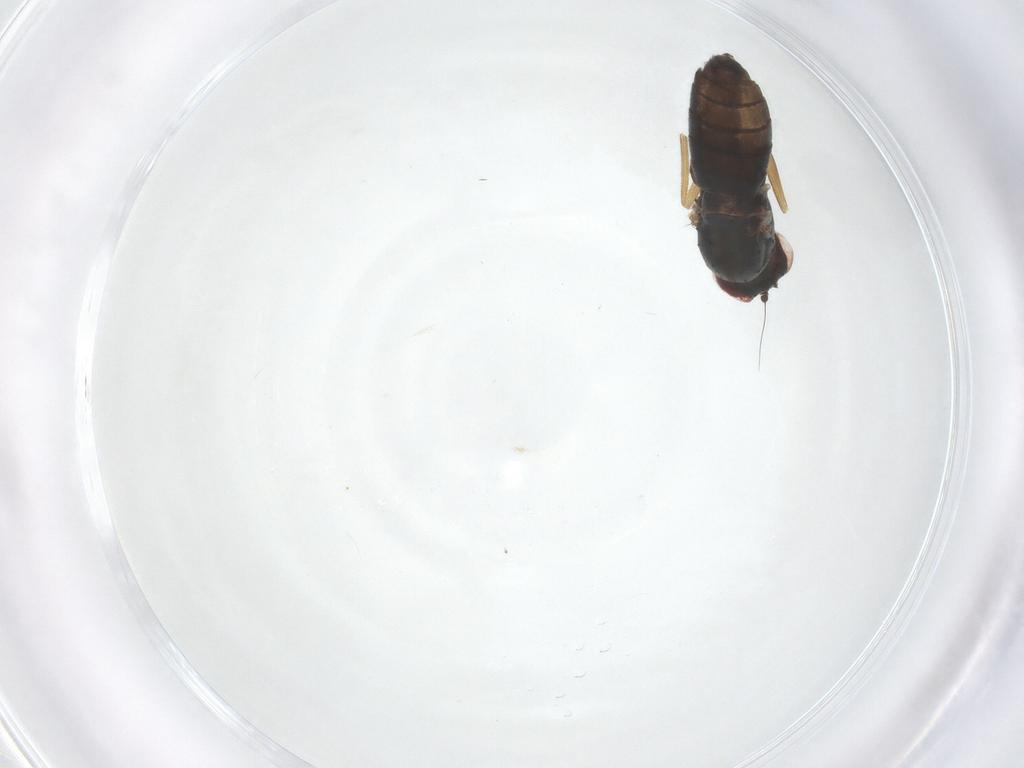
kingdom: Animalia
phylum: Arthropoda
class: Insecta
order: Diptera
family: Dolichopodidae
